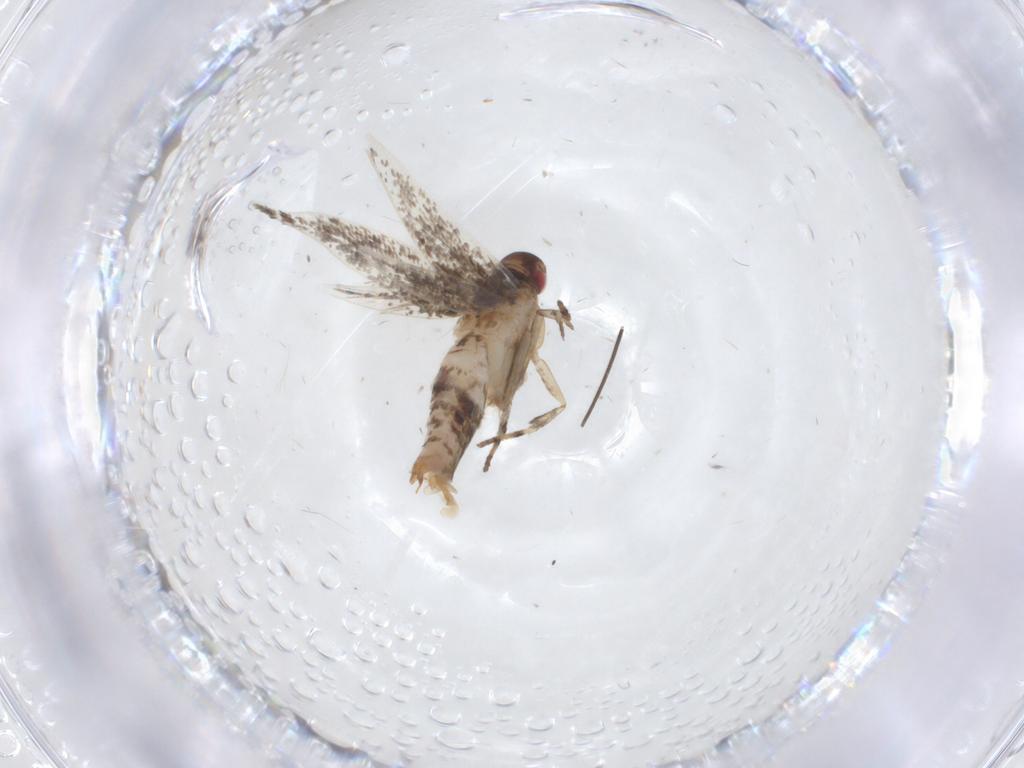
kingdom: Animalia
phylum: Arthropoda
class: Insecta
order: Lepidoptera
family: Cosmopterigidae
